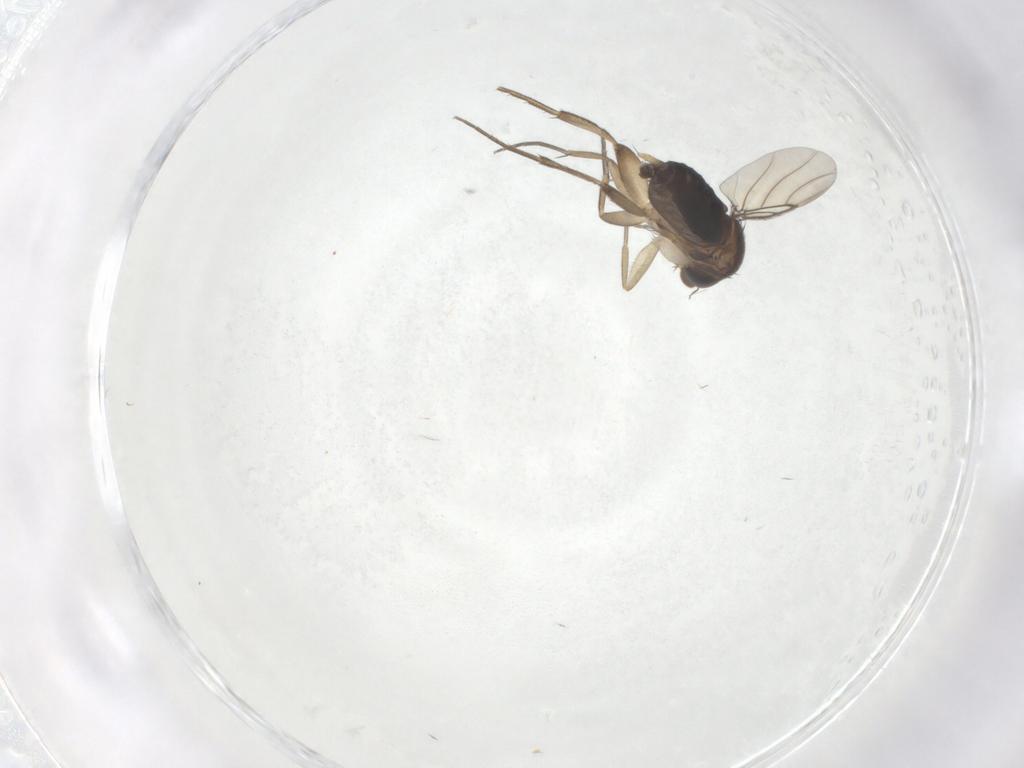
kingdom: Animalia
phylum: Arthropoda
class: Insecta
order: Diptera
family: Phoridae
